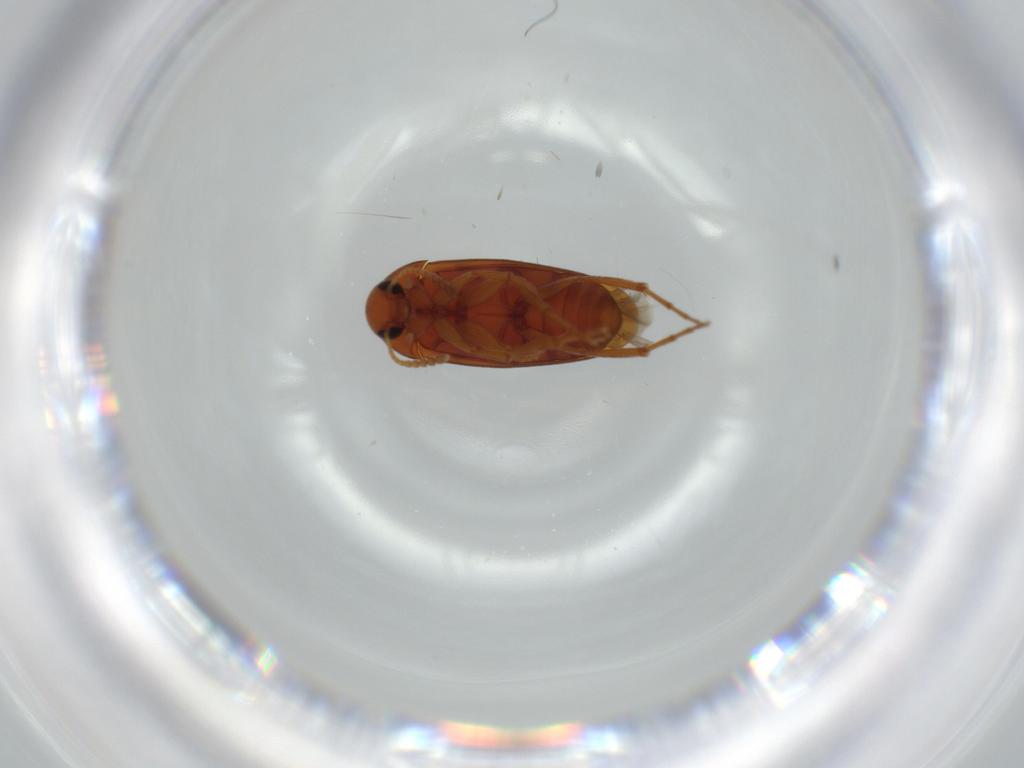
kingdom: Animalia
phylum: Arthropoda
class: Insecta
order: Coleoptera
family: Scraptiidae
